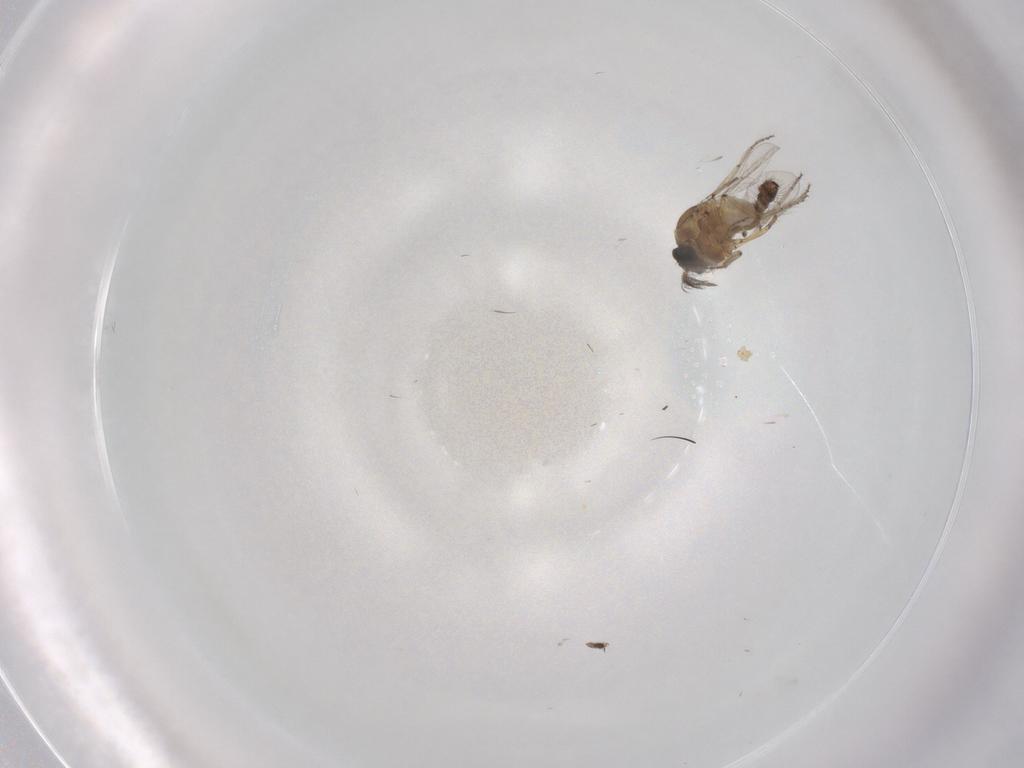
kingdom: Animalia
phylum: Arthropoda
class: Insecta
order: Diptera
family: Ceratopogonidae
